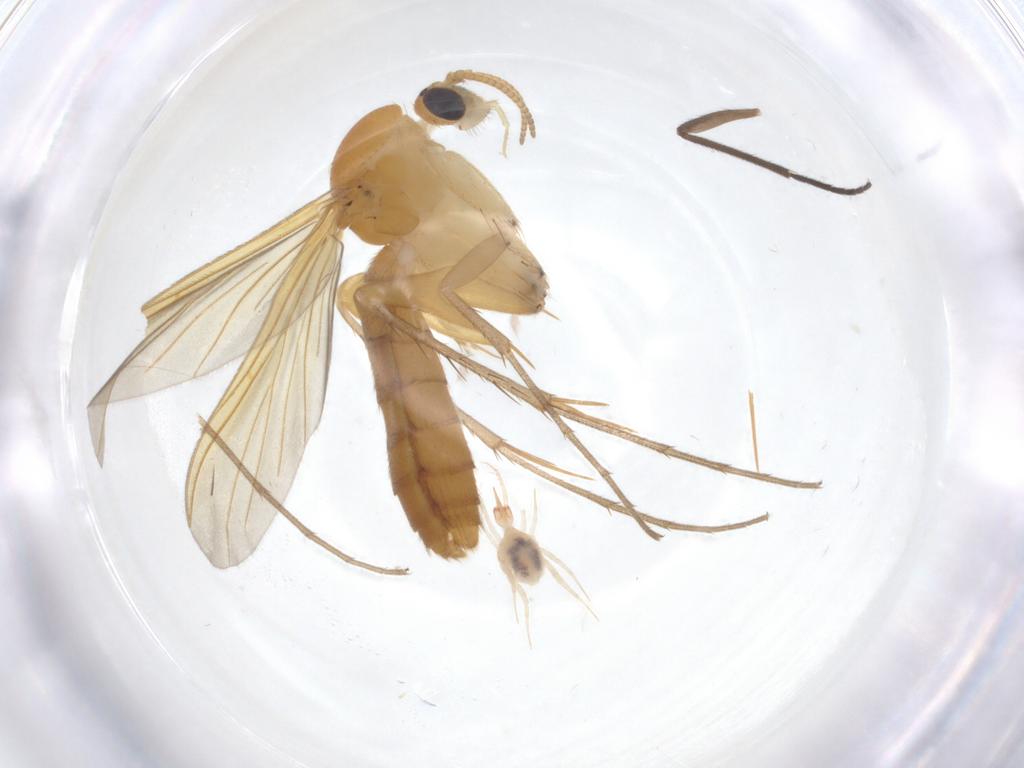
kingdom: Animalia
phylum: Arthropoda
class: Insecta
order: Diptera
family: Mycetophilidae
